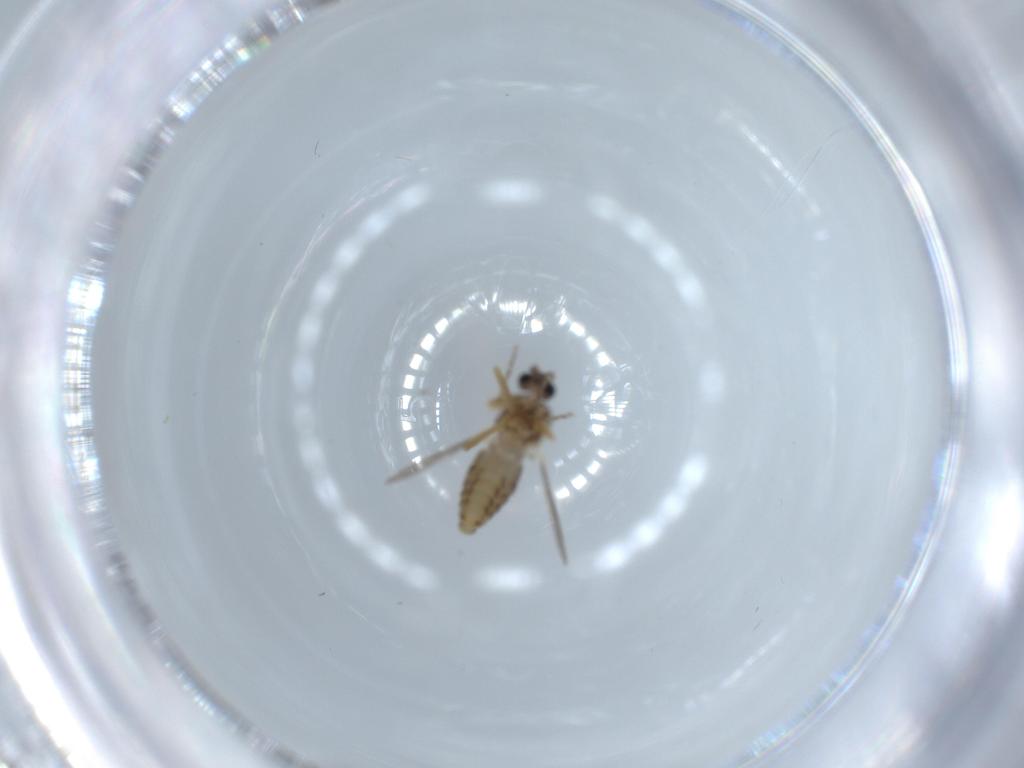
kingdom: Animalia
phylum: Arthropoda
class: Insecta
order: Diptera
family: Ceratopogonidae
